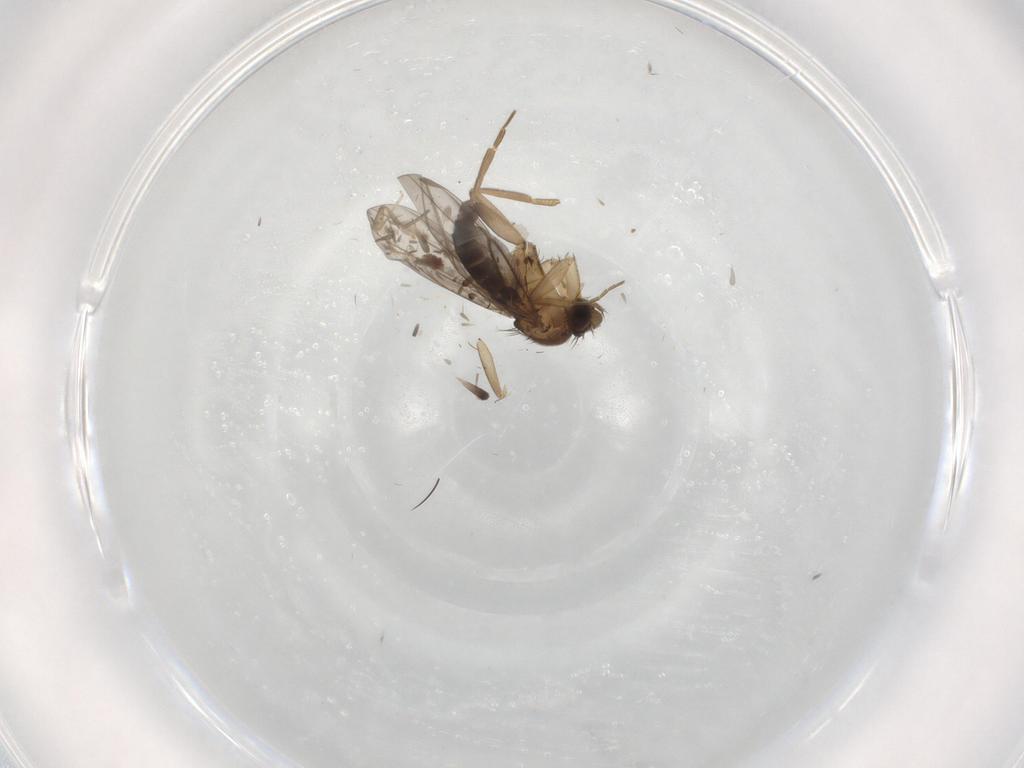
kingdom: Animalia
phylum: Arthropoda
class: Insecta
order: Diptera
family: Phoridae
